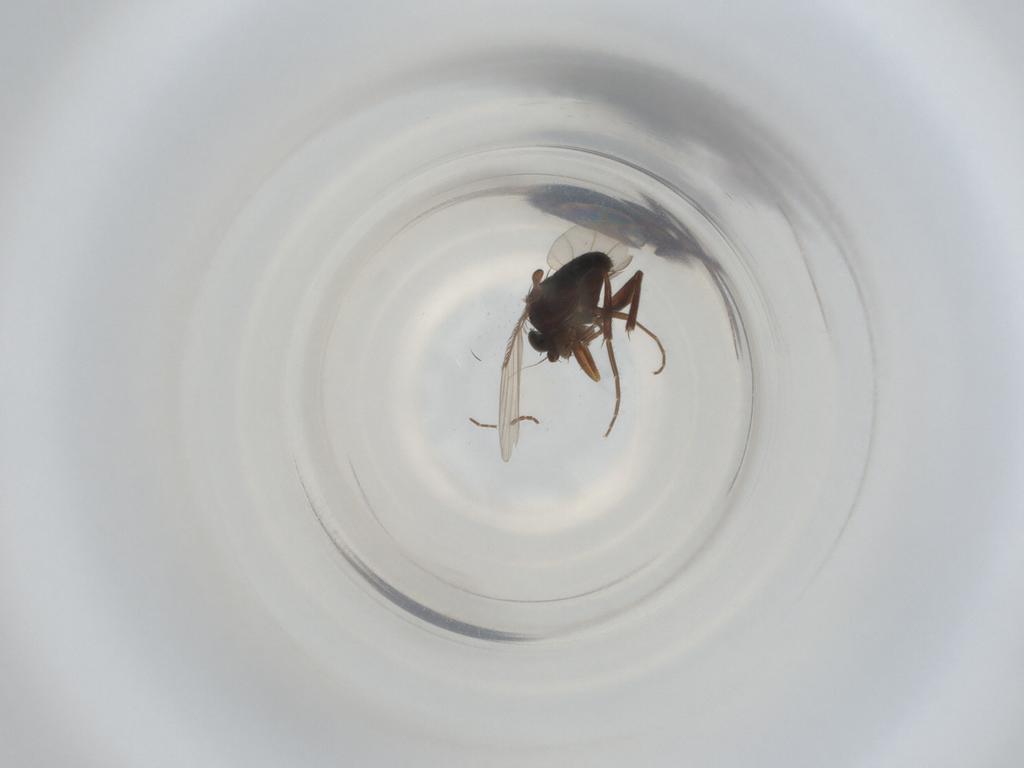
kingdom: Animalia
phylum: Arthropoda
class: Insecta
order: Diptera
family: Phoridae
